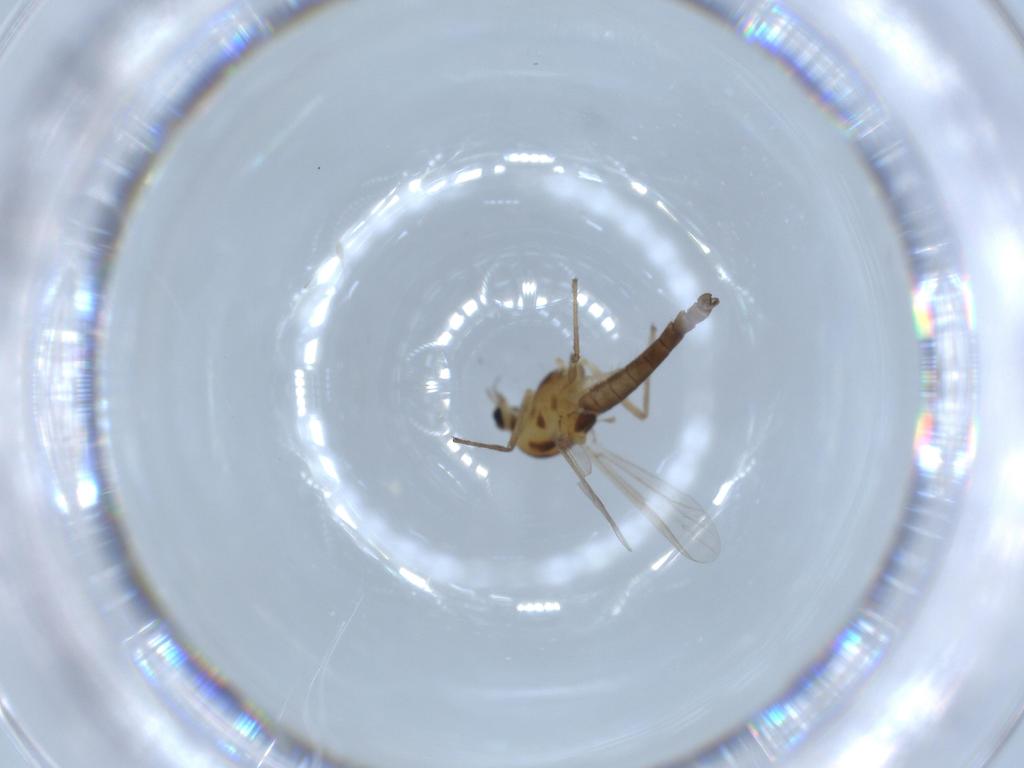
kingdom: Animalia
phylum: Arthropoda
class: Insecta
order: Diptera
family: Chironomidae
